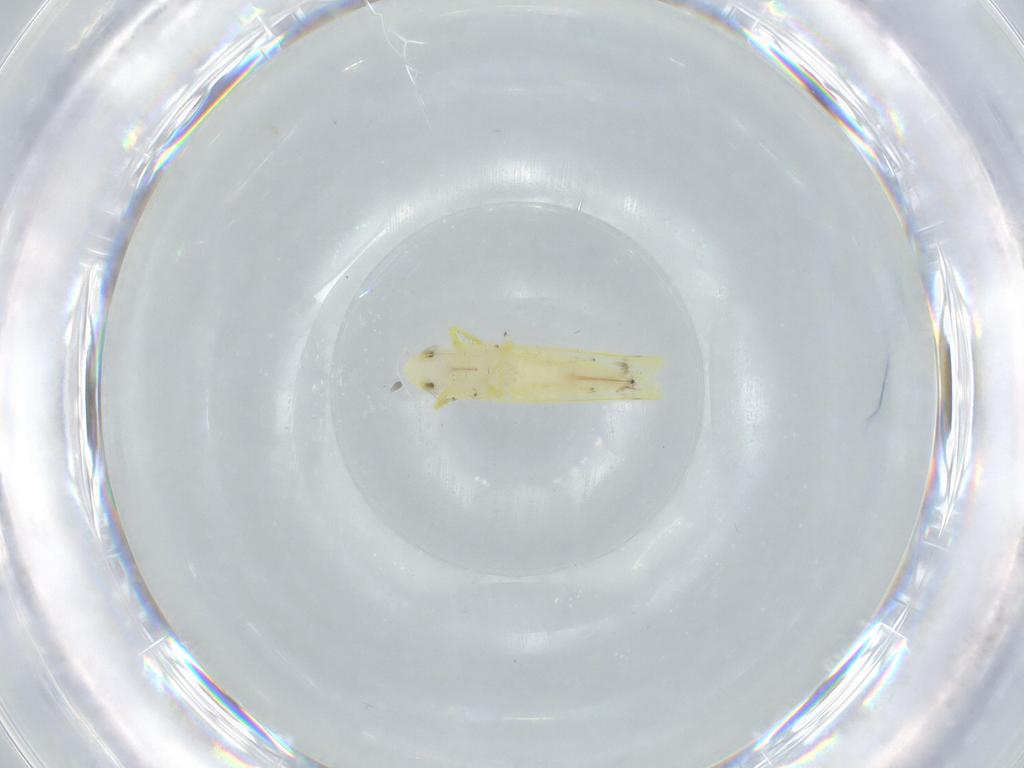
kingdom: Animalia
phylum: Arthropoda
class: Insecta
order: Hemiptera
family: Cicadellidae
